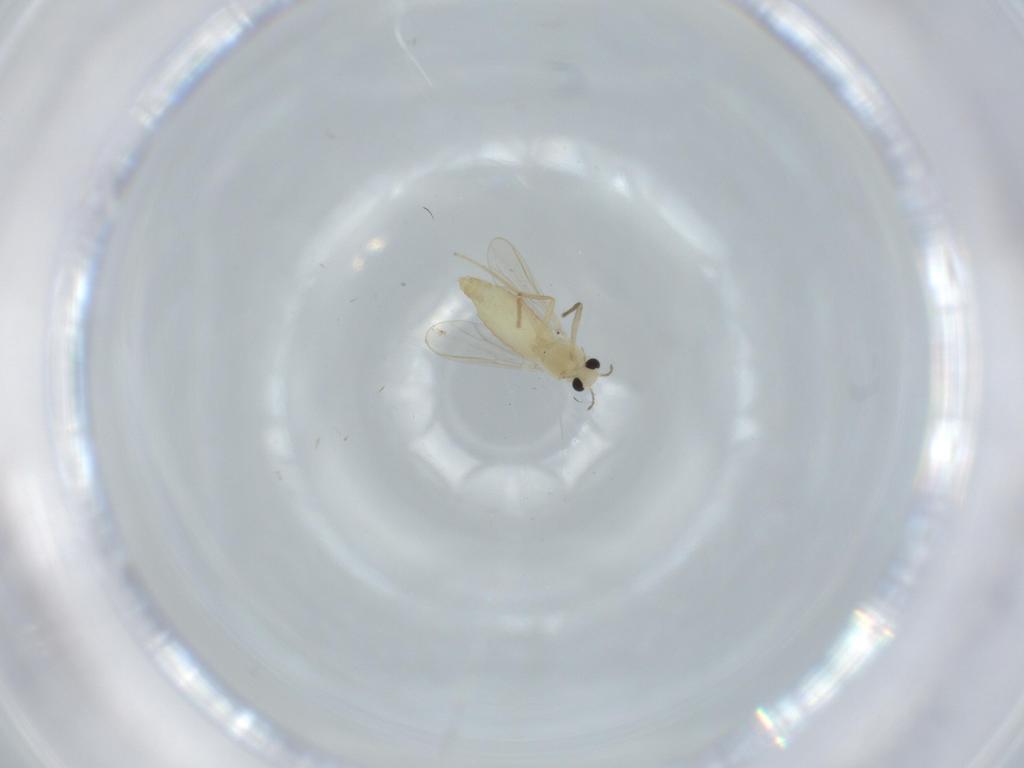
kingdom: Animalia
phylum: Arthropoda
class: Insecta
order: Diptera
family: Chironomidae
